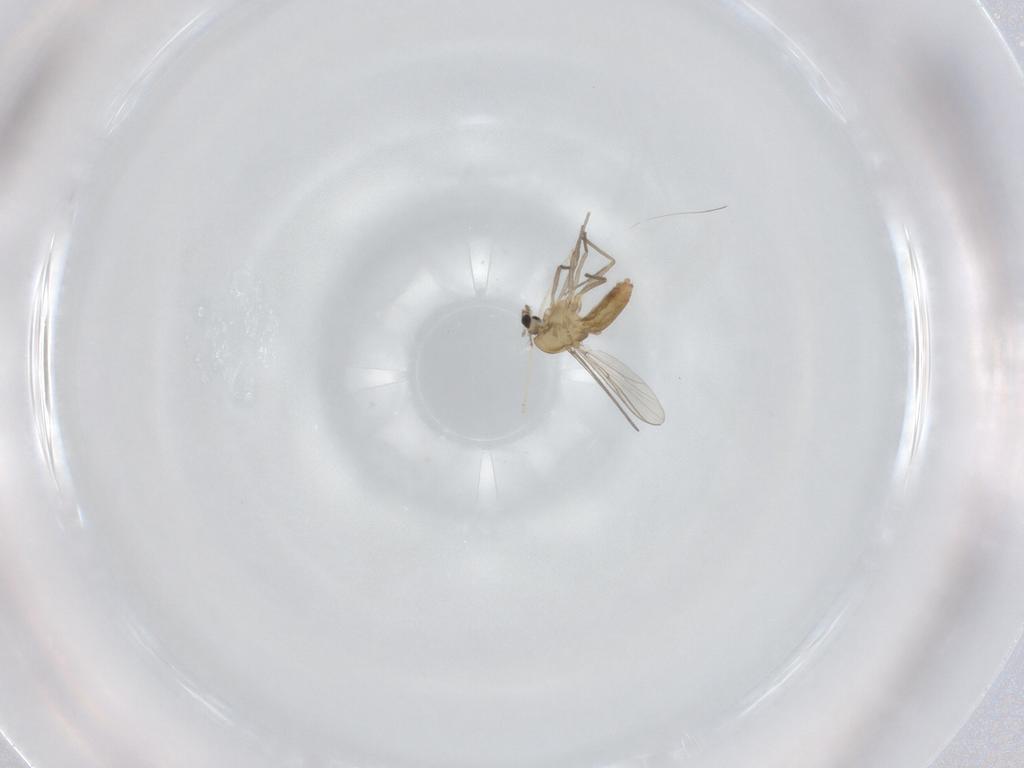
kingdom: Animalia
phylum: Arthropoda
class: Insecta
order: Diptera
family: Chironomidae
